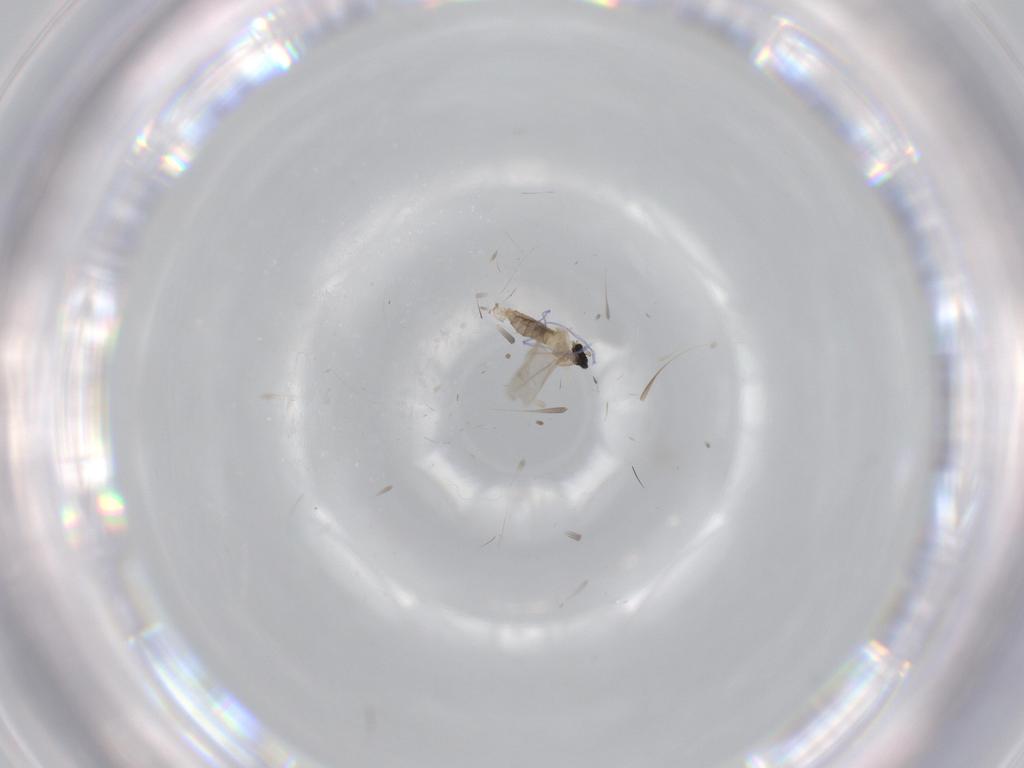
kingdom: Animalia
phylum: Arthropoda
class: Insecta
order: Diptera
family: Cecidomyiidae
